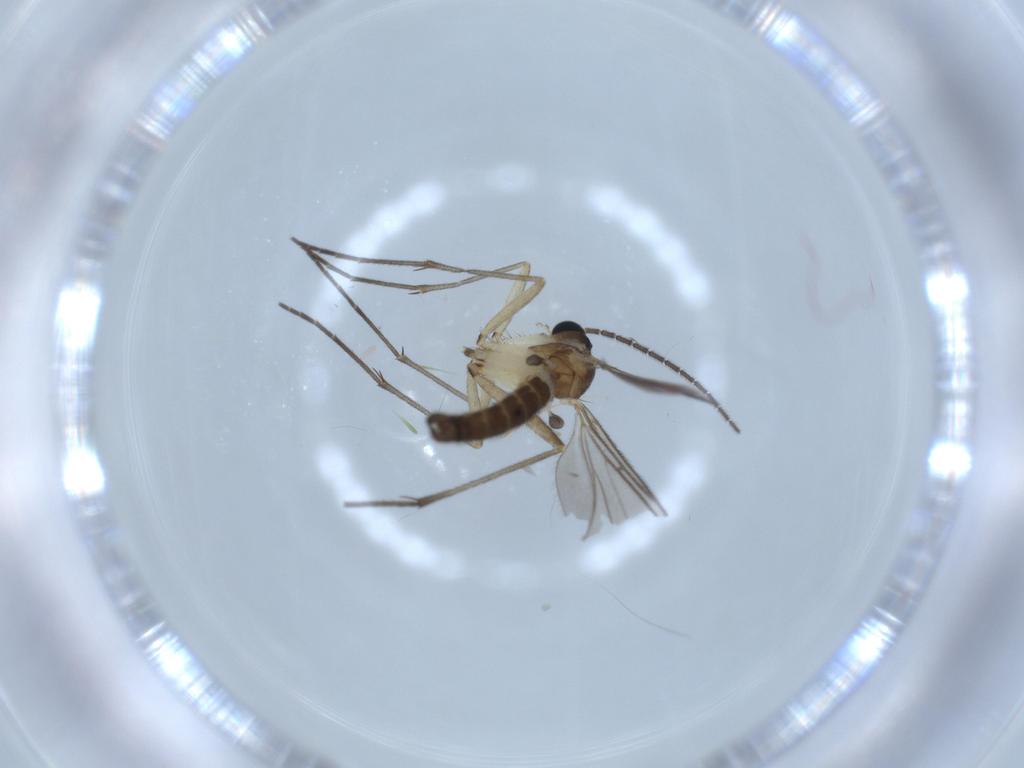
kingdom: Animalia
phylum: Arthropoda
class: Insecta
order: Diptera
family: Sciaridae
